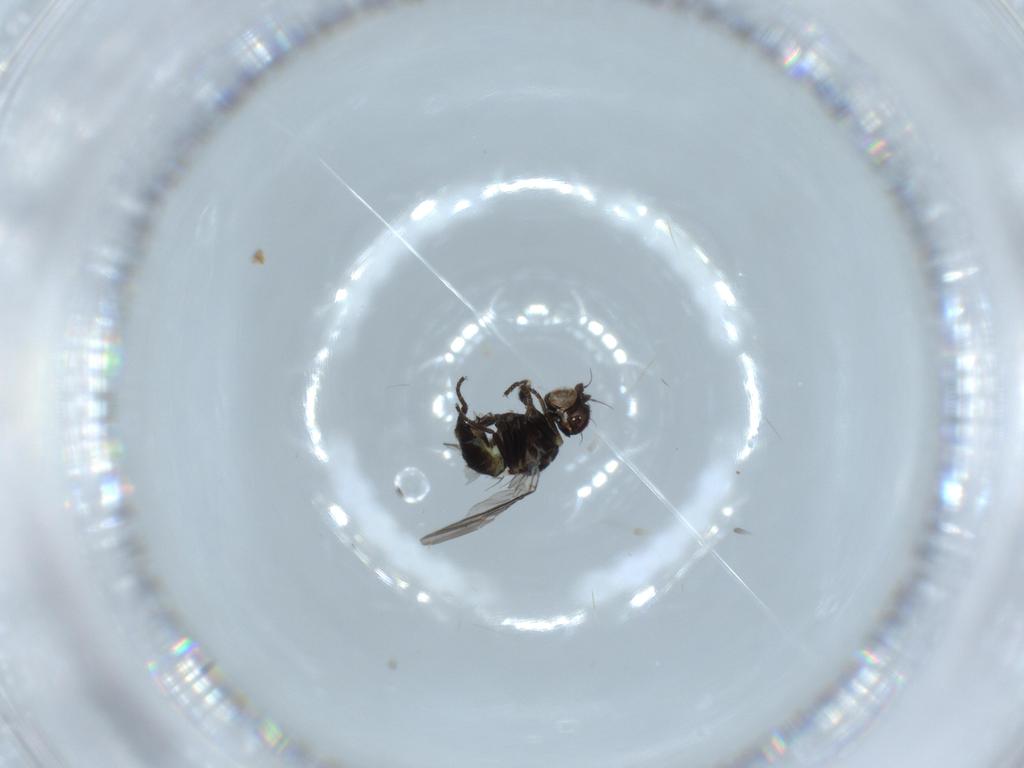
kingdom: Animalia
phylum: Arthropoda
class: Insecta
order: Diptera
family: Agromyzidae
